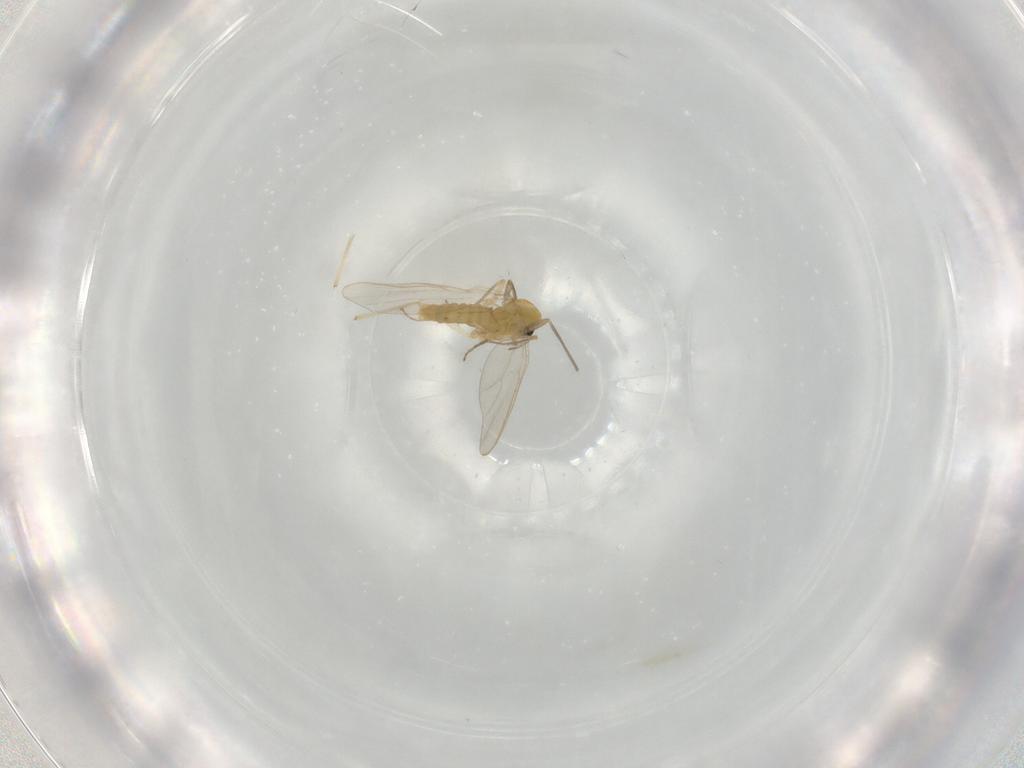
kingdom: Animalia
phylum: Arthropoda
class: Insecta
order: Diptera
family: Chironomidae
